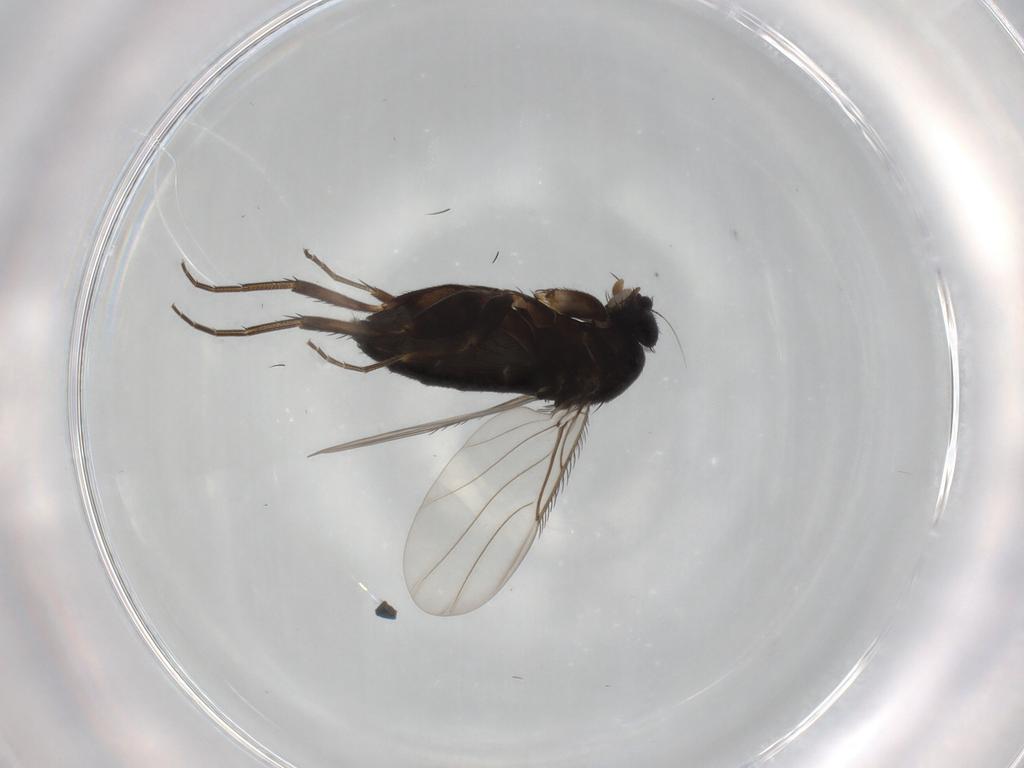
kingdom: Animalia
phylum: Arthropoda
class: Insecta
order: Diptera
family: Phoridae
